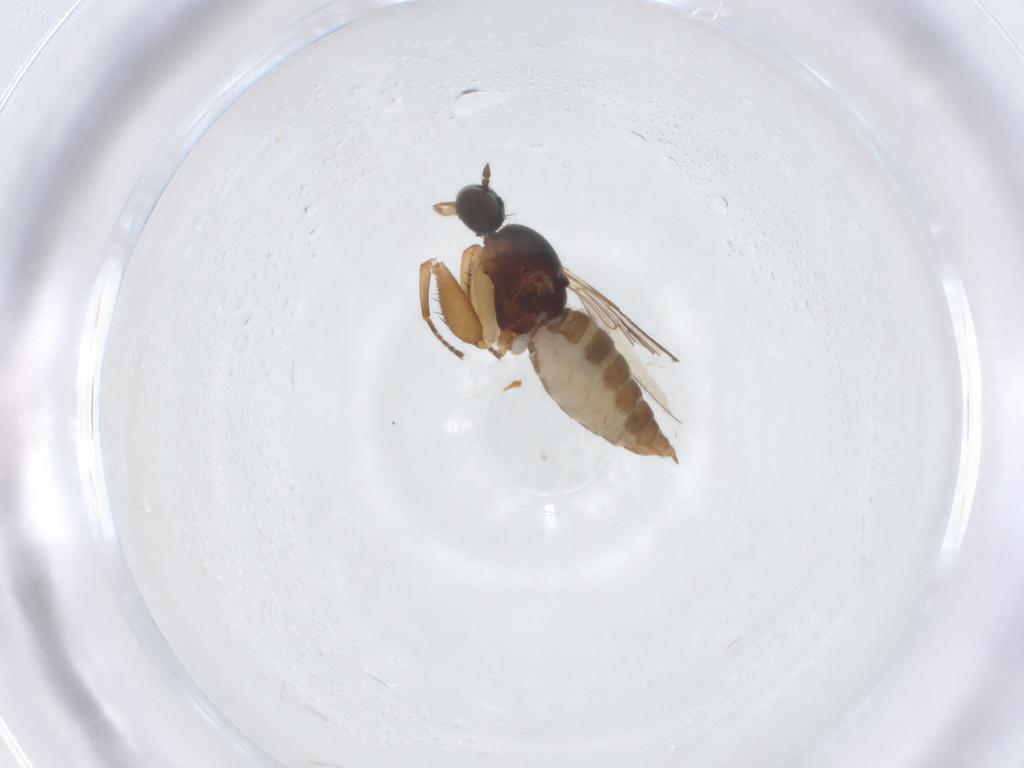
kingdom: Animalia
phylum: Arthropoda
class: Insecta
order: Diptera
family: Empididae
